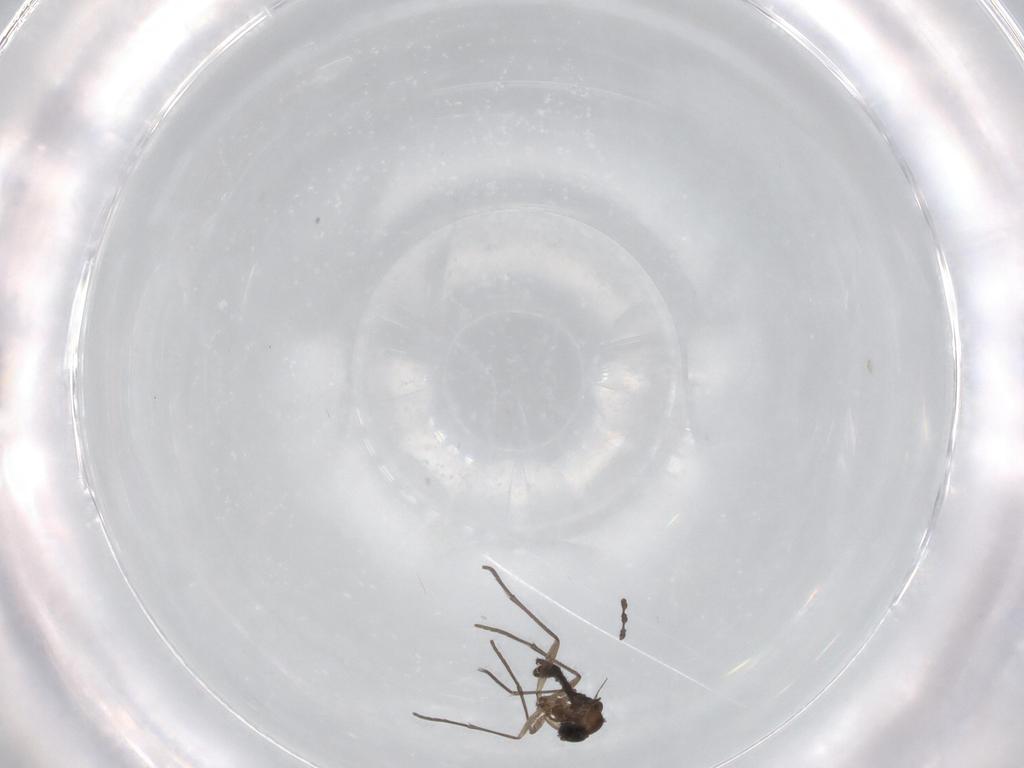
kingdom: Animalia
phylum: Arthropoda
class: Insecta
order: Diptera
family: Sciaridae
